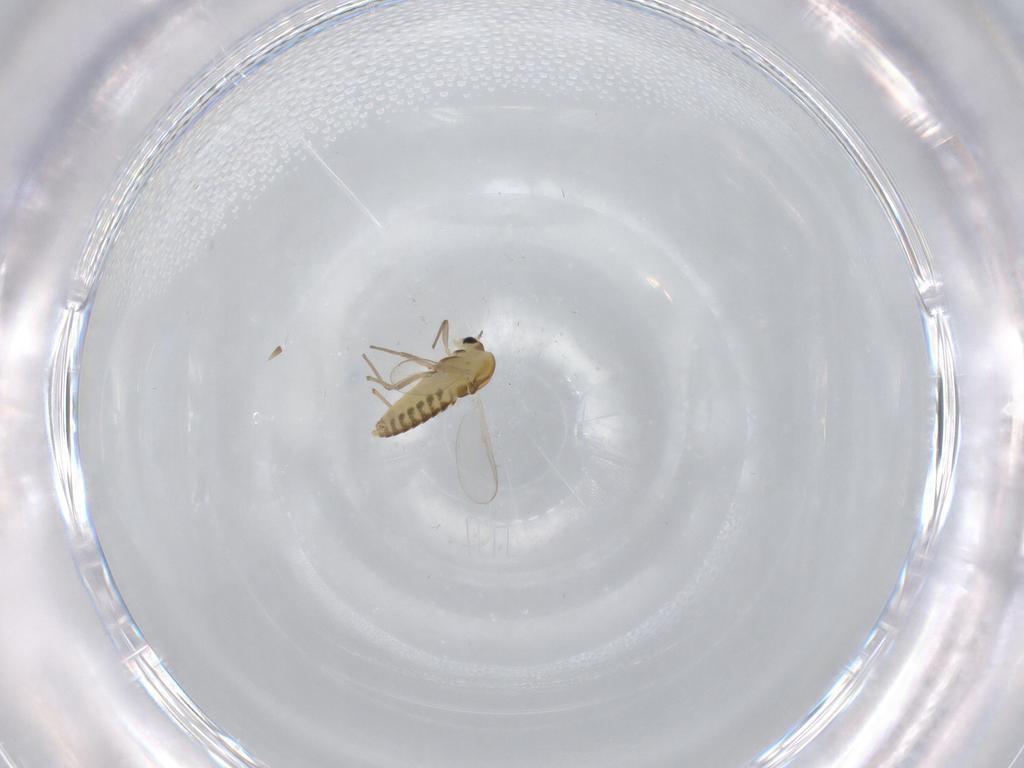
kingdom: Animalia
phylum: Arthropoda
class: Insecta
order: Diptera
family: Chironomidae
